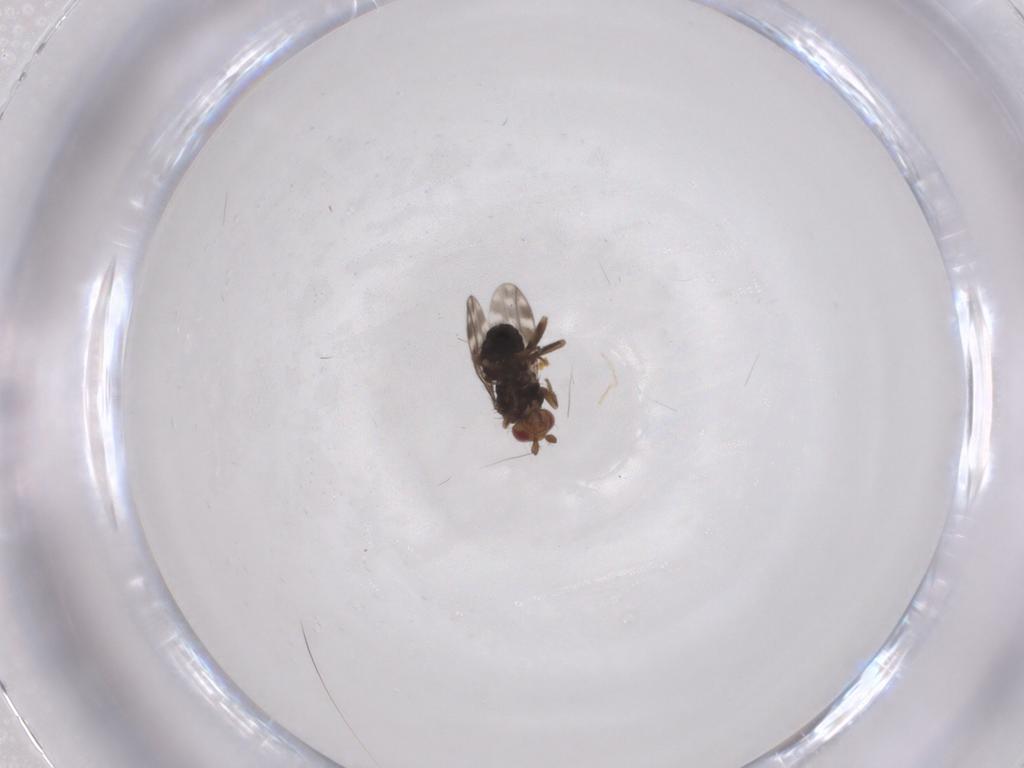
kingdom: Animalia
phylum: Arthropoda
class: Insecta
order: Diptera
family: Sphaeroceridae
